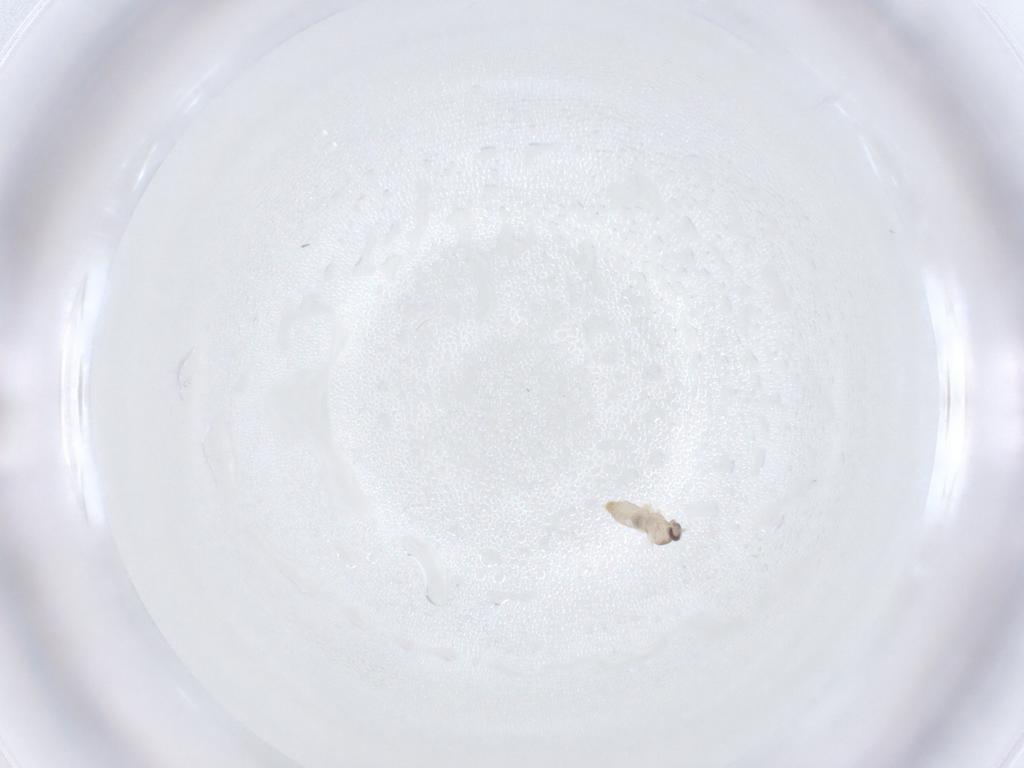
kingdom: Animalia
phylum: Arthropoda
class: Insecta
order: Diptera
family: Cecidomyiidae
